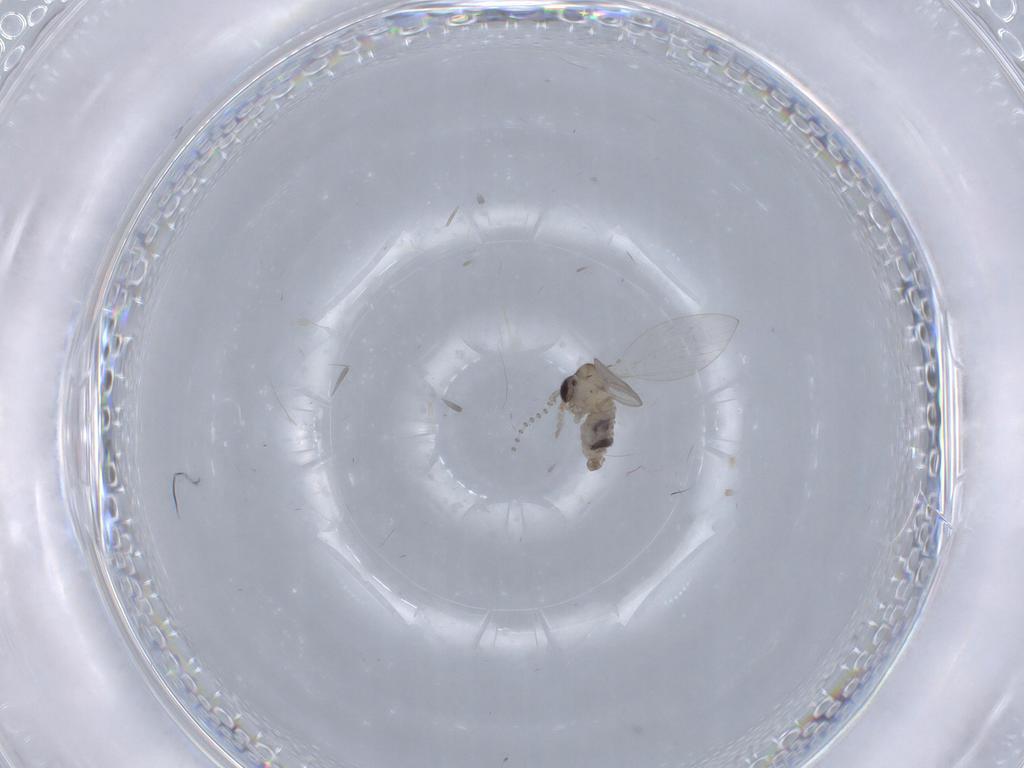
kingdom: Animalia
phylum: Arthropoda
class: Insecta
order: Diptera
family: Psychodidae
